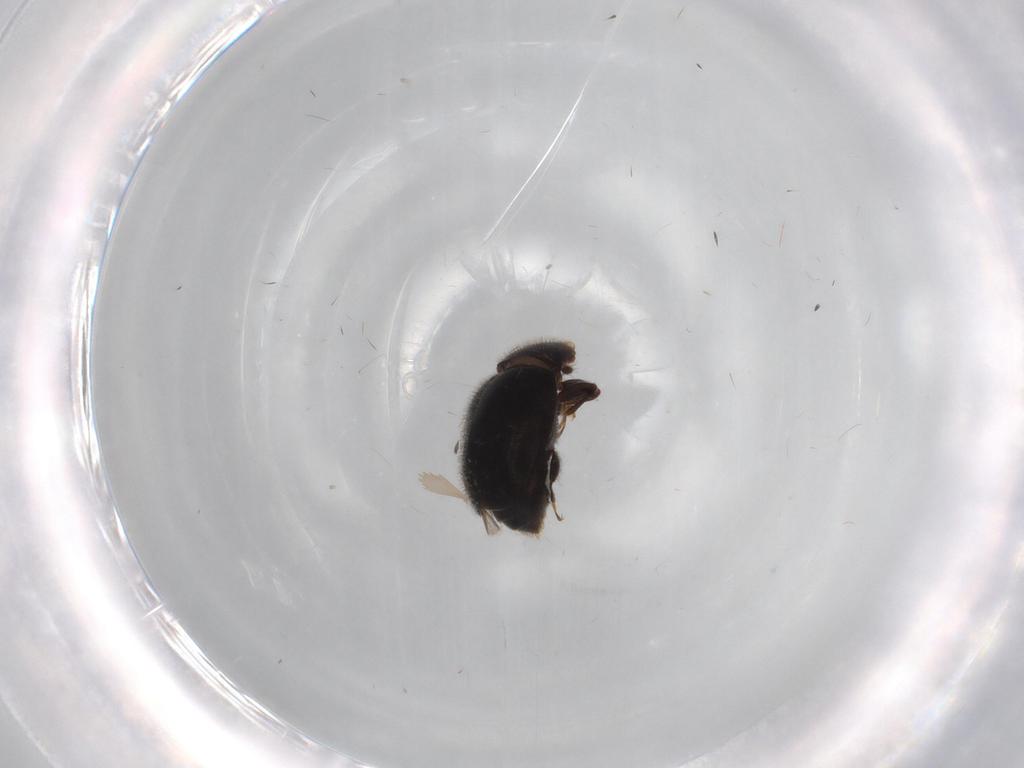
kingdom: Animalia
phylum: Arthropoda
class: Insecta
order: Coleoptera
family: Corylophidae
